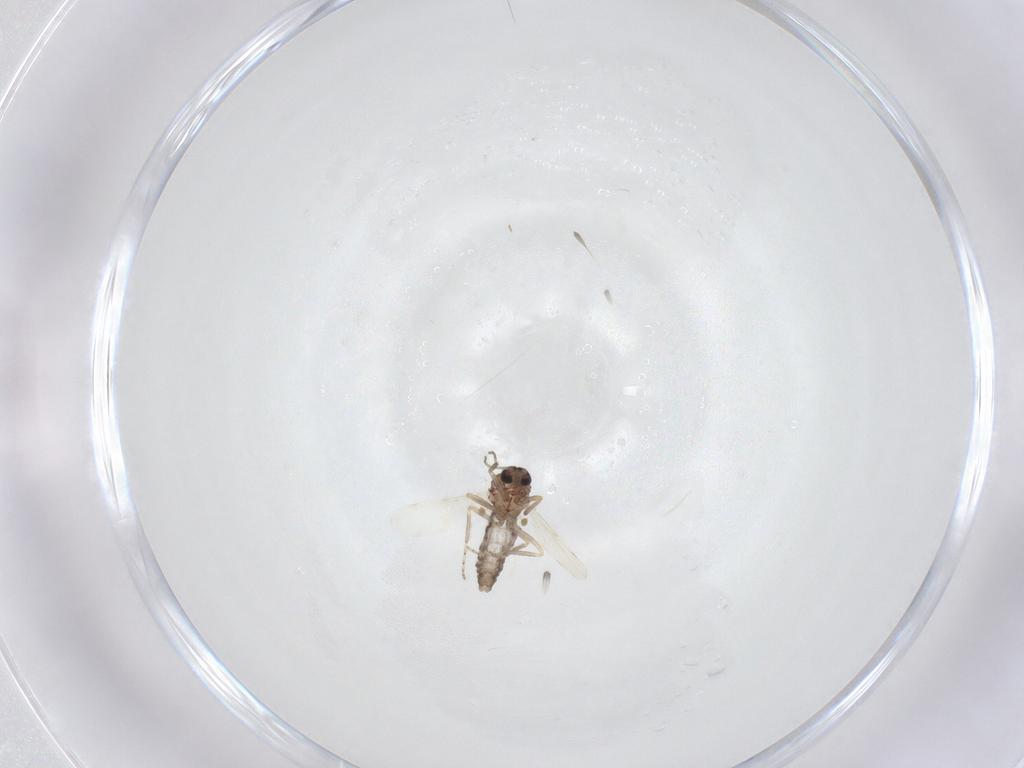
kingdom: Animalia
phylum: Arthropoda
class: Insecta
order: Diptera
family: Ceratopogonidae
